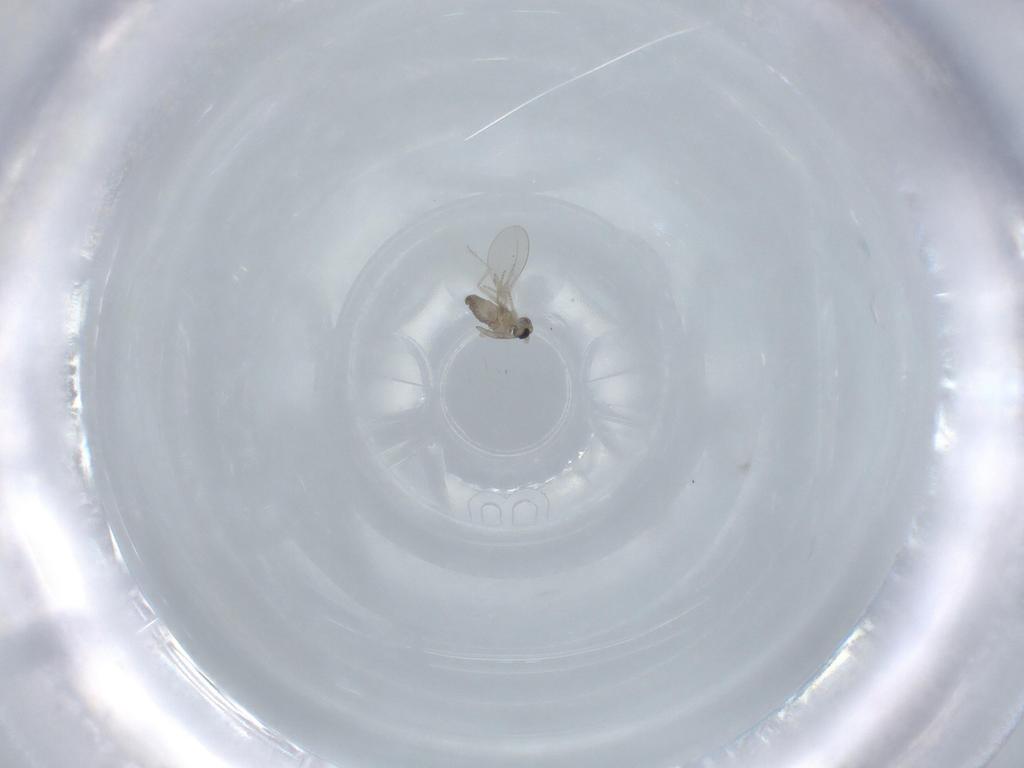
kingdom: Animalia
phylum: Arthropoda
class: Insecta
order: Diptera
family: Cecidomyiidae
